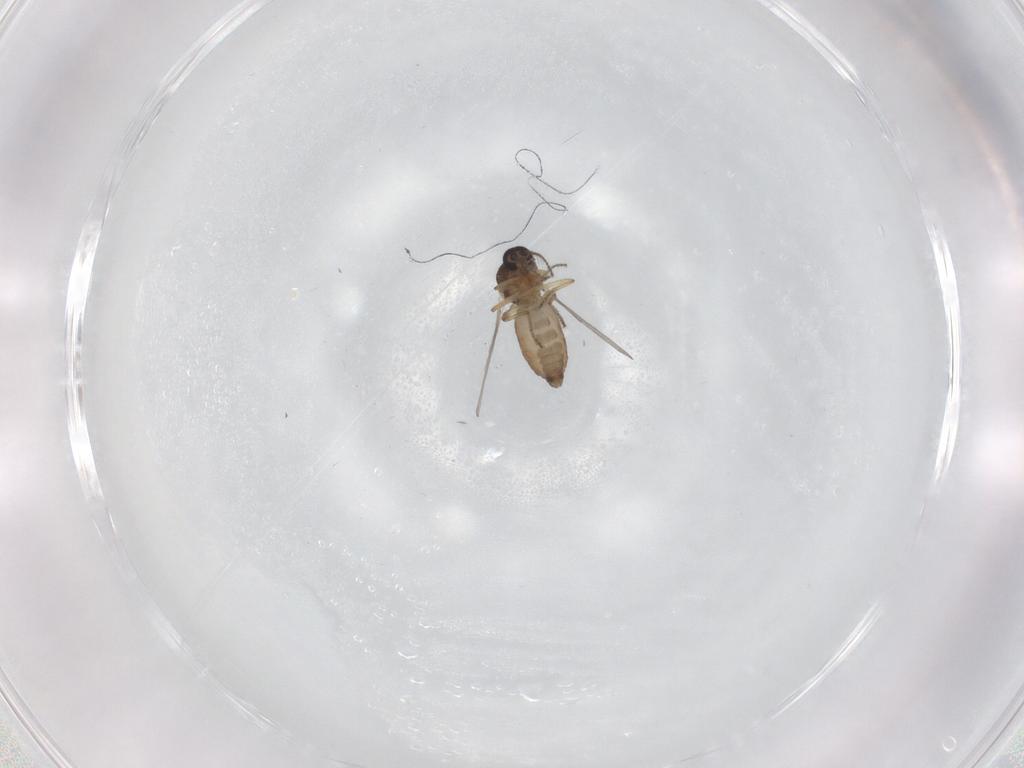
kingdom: Animalia
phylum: Arthropoda
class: Insecta
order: Diptera
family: Ceratopogonidae
